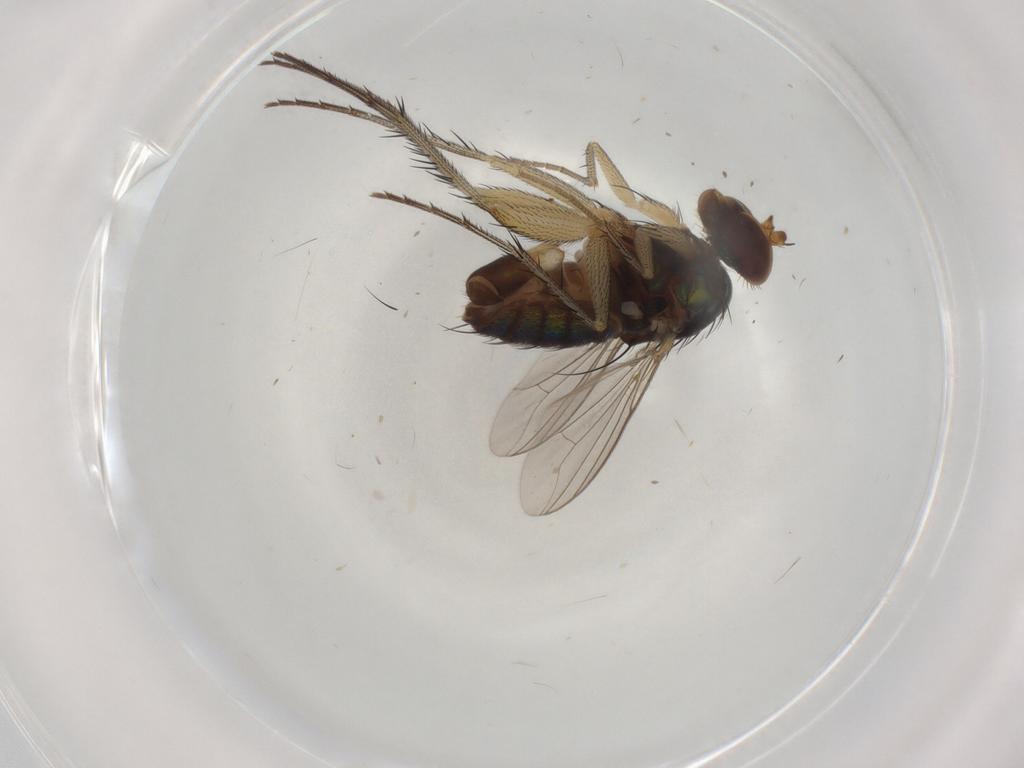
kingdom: Animalia
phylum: Arthropoda
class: Insecta
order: Diptera
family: Dolichopodidae
